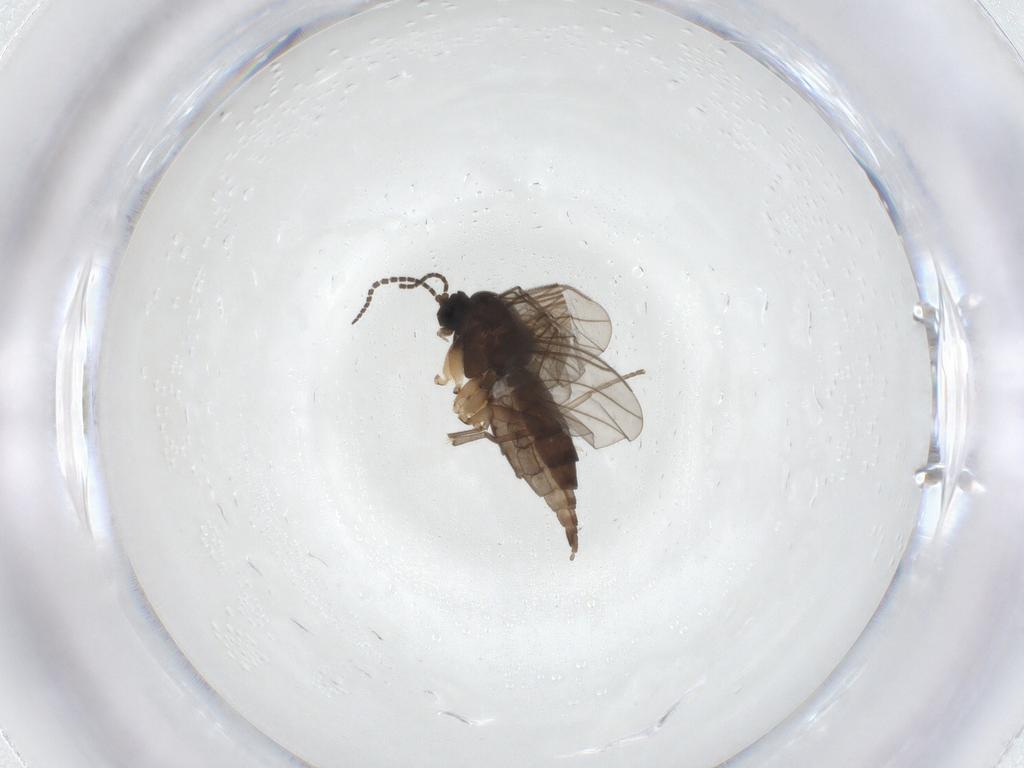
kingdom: Animalia
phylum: Arthropoda
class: Insecta
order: Diptera
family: Sciaridae
